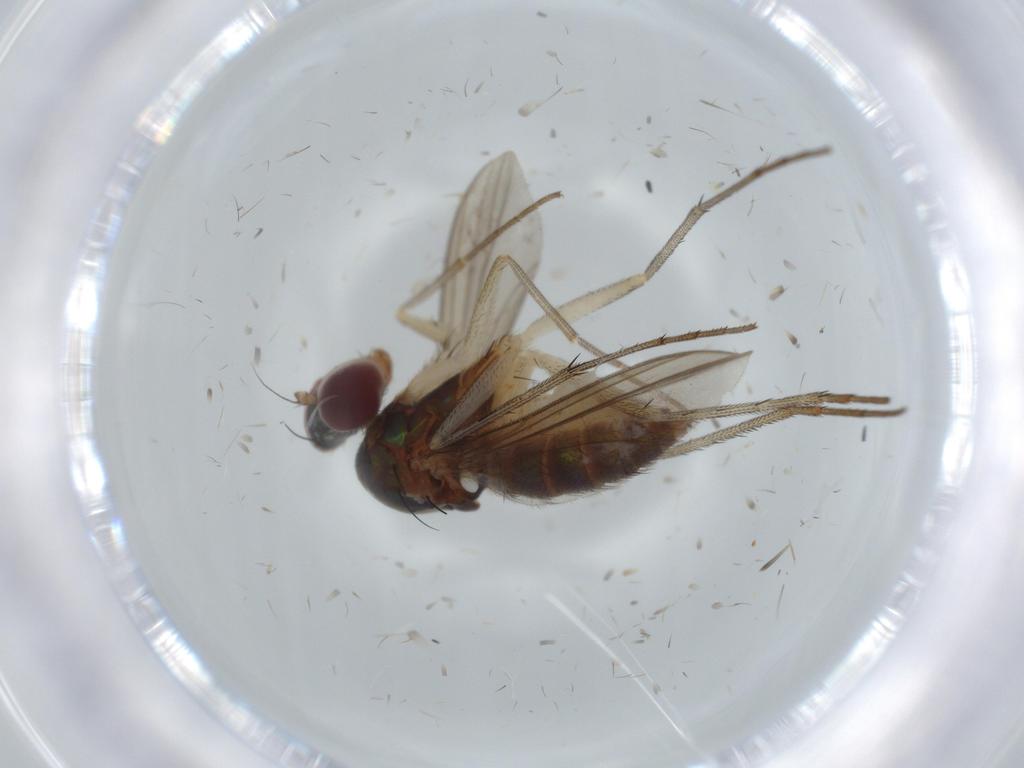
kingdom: Animalia
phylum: Arthropoda
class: Insecta
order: Diptera
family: Dolichopodidae
